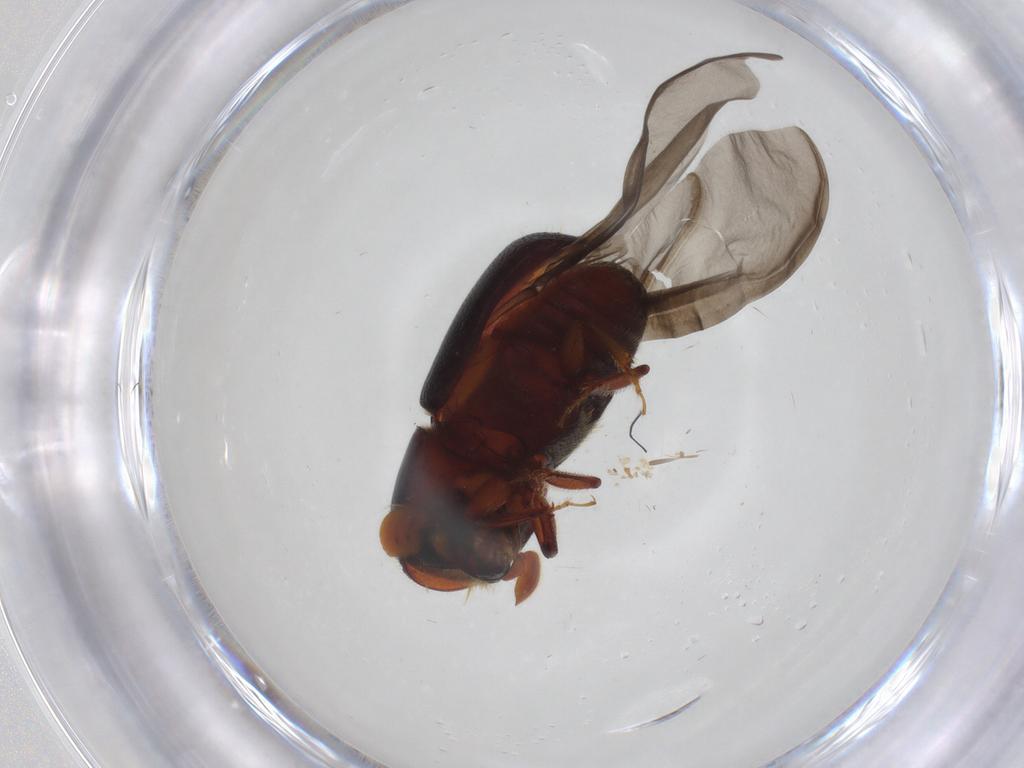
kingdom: Animalia
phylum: Arthropoda
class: Insecta
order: Coleoptera
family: Curculionidae
